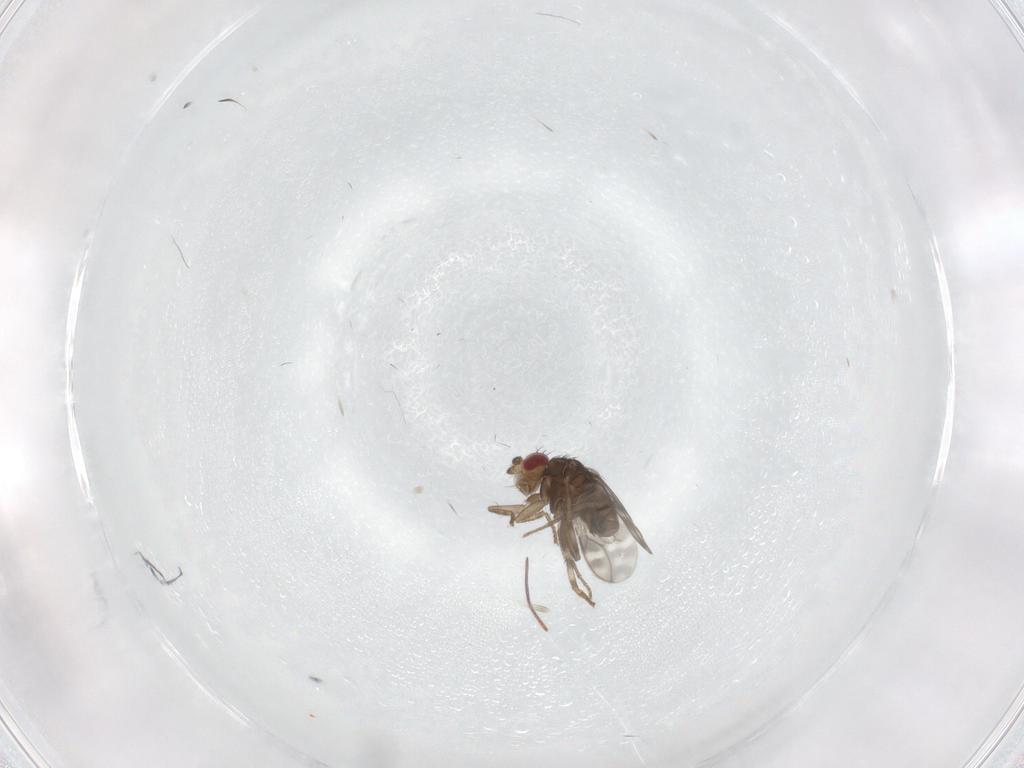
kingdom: Animalia
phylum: Arthropoda
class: Insecta
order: Diptera
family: Sphaeroceridae
